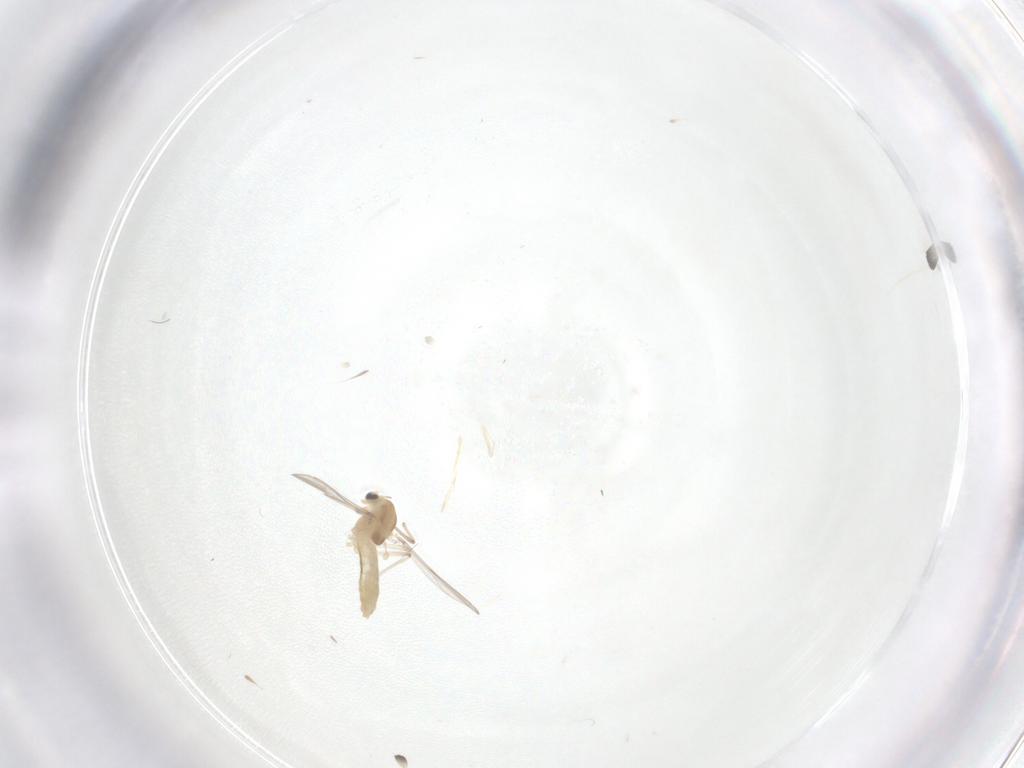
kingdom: Animalia
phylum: Arthropoda
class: Insecta
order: Diptera
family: Chironomidae
